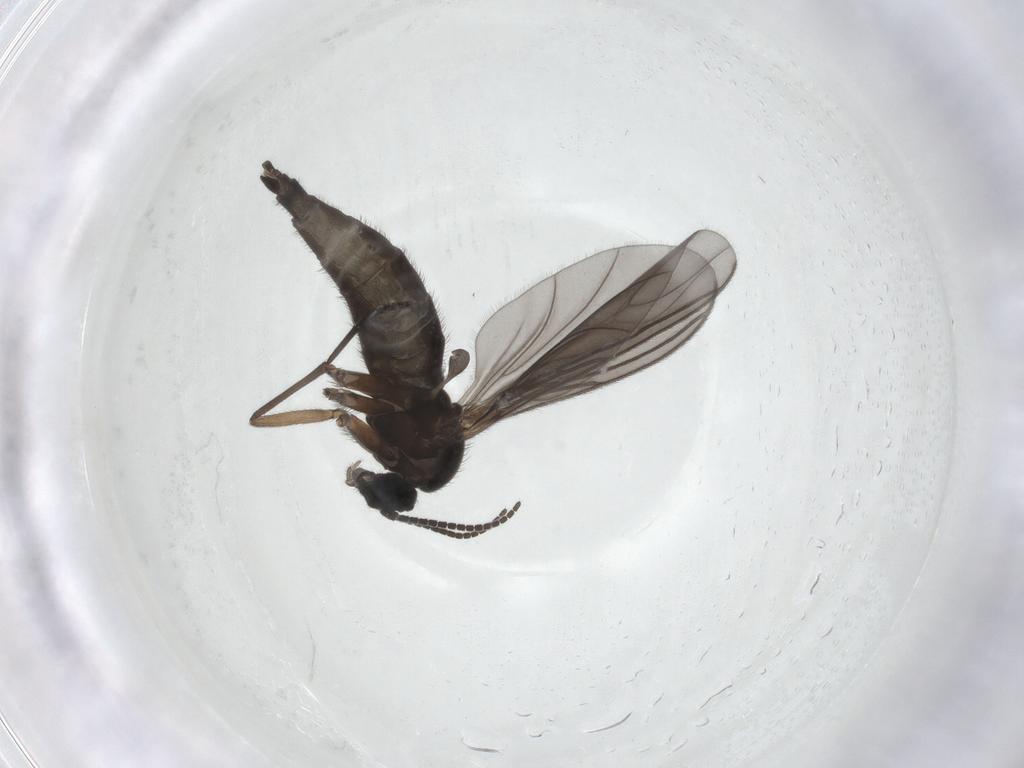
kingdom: Animalia
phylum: Arthropoda
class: Insecta
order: Diptera
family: Sciaridae
